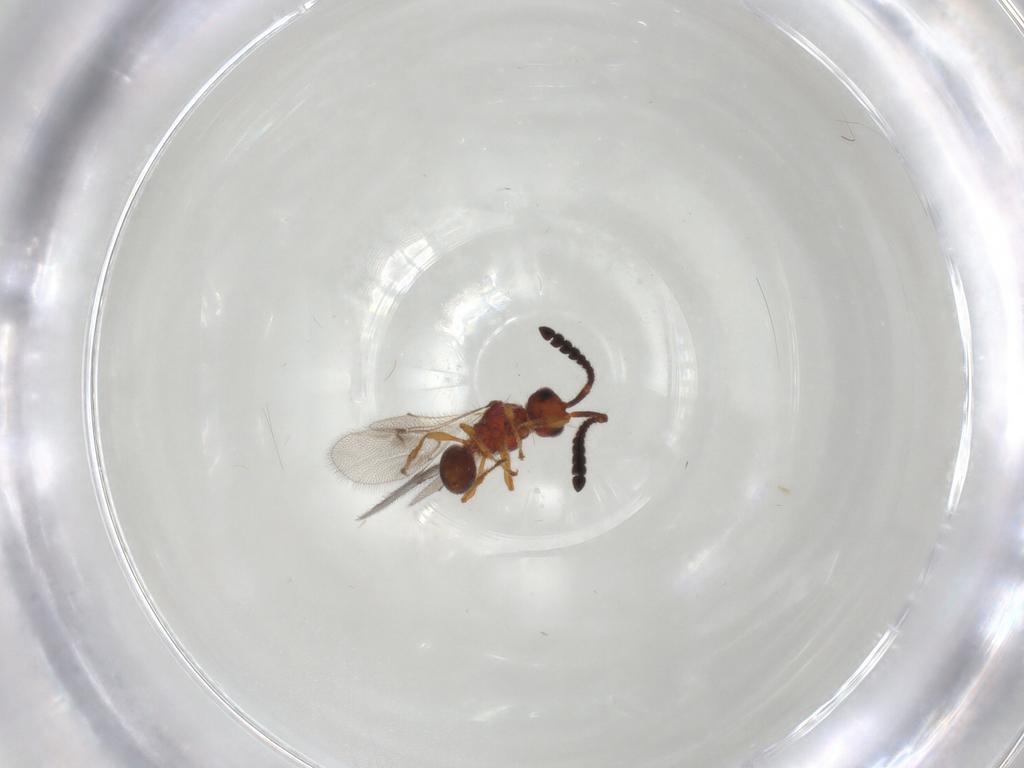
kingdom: Animalia
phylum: Arthropoda
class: Insecta
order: Hymenoptera
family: Diapriidae
